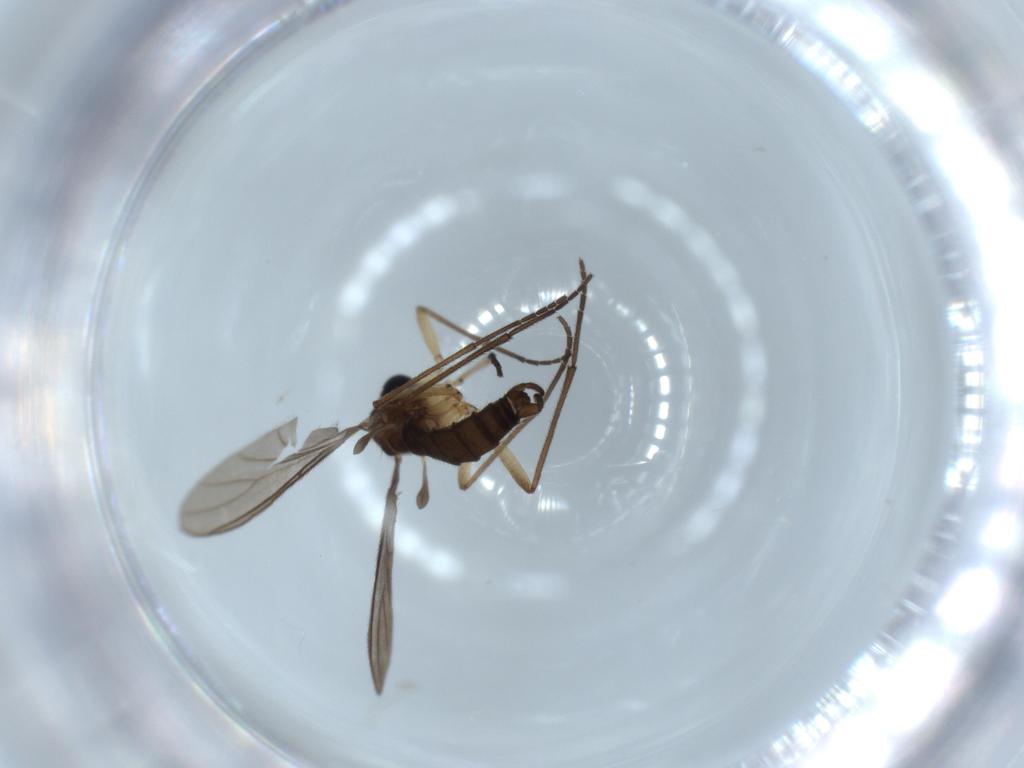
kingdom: Animalia
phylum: Arthropoda
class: Insecta
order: Diptera
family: Sciaridae
